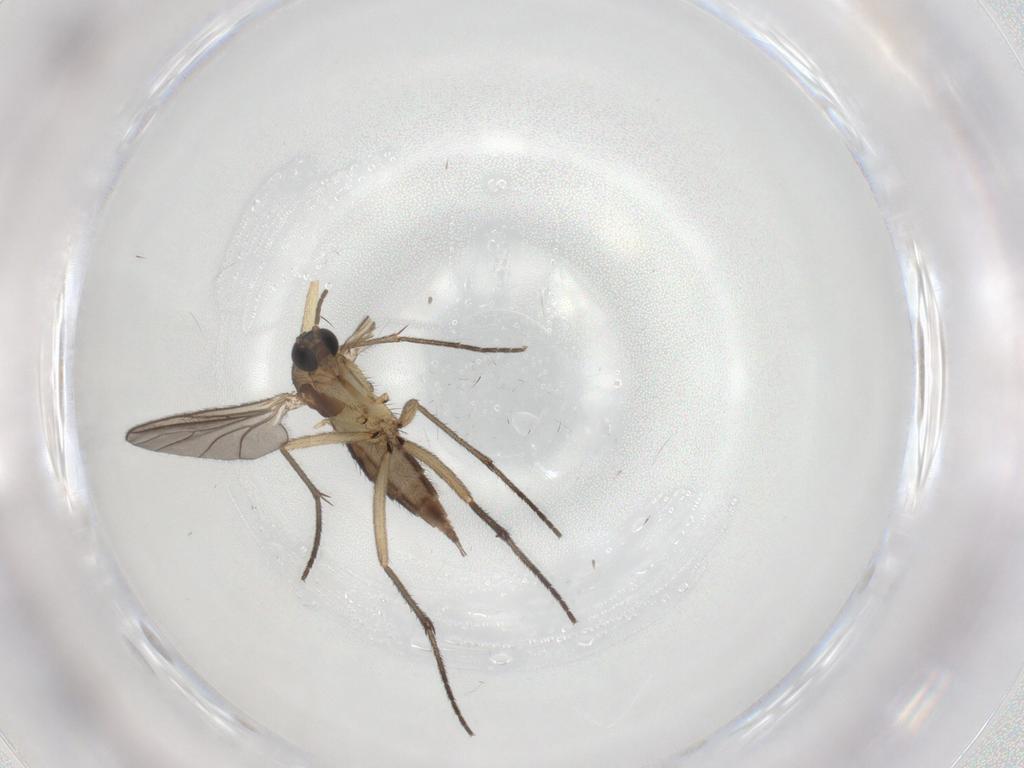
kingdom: Animalia
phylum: Arthropoda
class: Insecta
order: Diptera
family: Sciaridae
